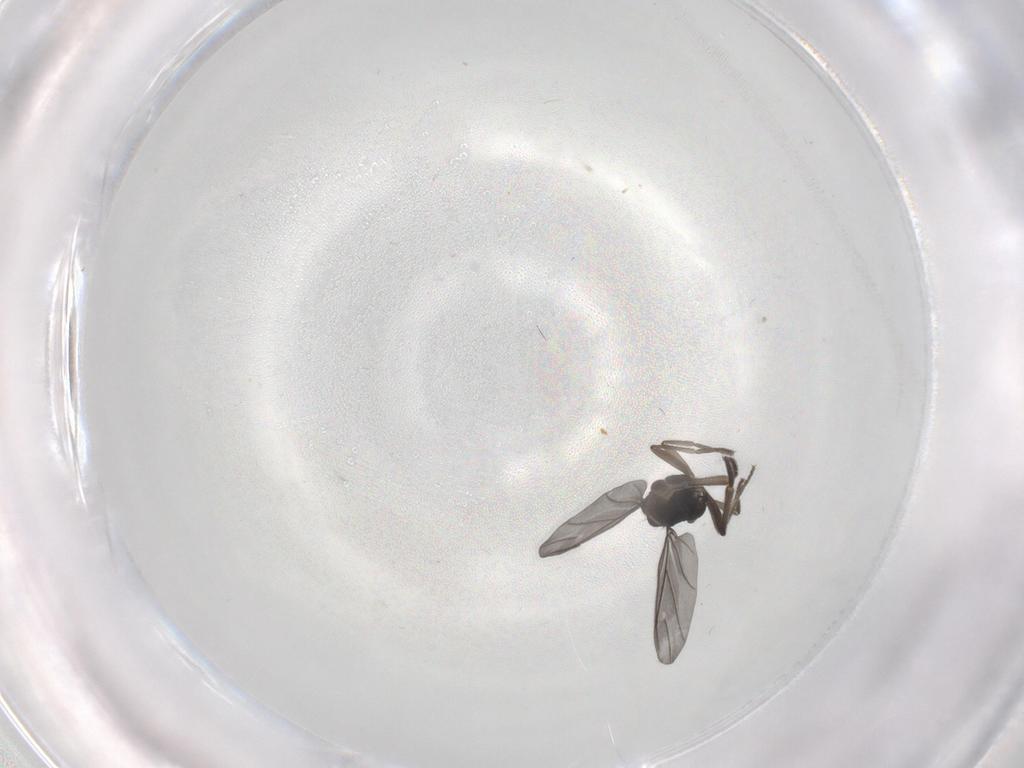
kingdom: Animalia
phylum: Arthropoda
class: Insecta
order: Diptera
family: Phoridae
